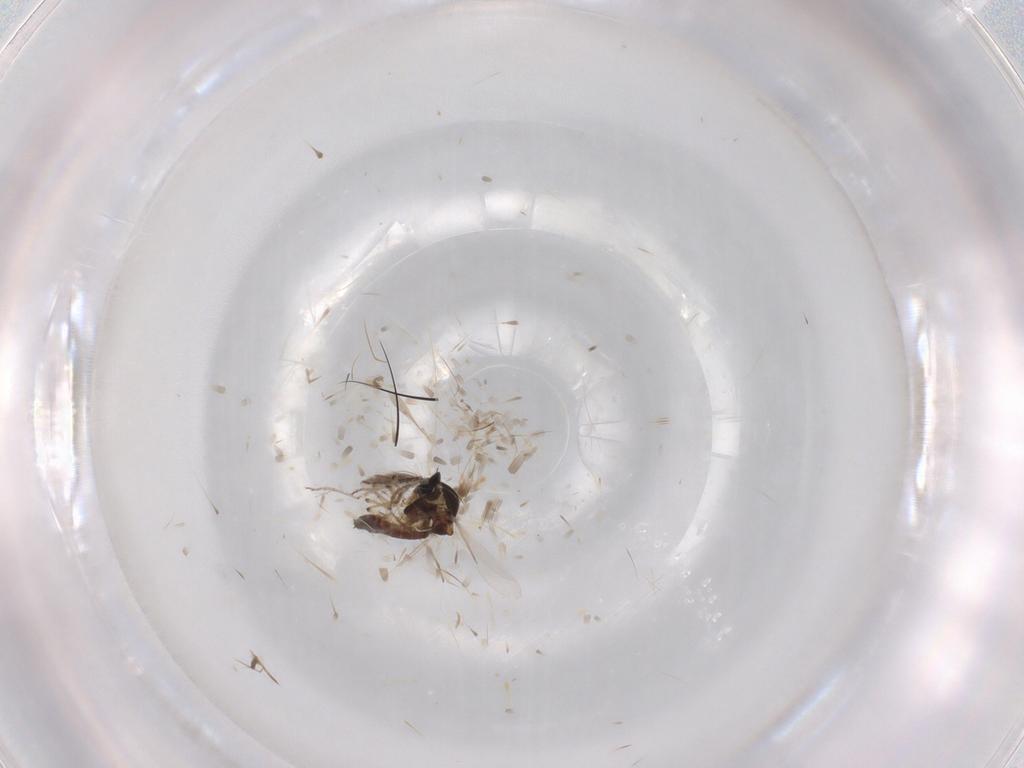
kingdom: Animalia
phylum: Arthropoda
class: Insecta
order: Diptera
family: Ceratopogonidae
